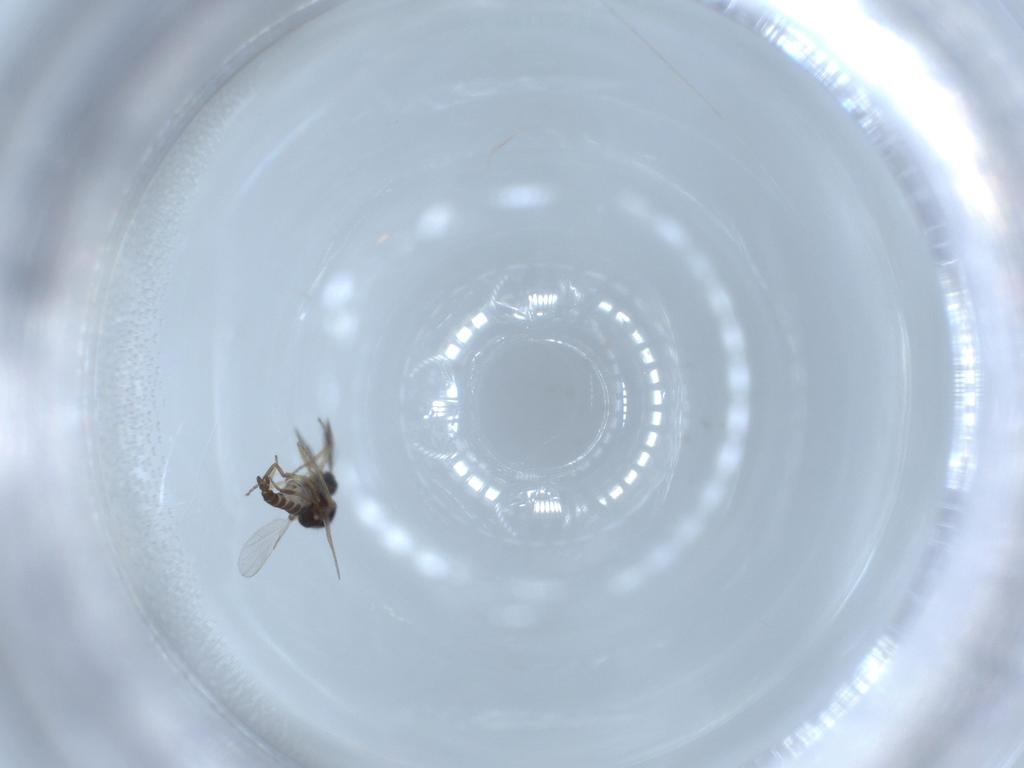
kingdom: Animalia
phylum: Arthropoda
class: Insecta
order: Diptera
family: Ceratopogonidae
